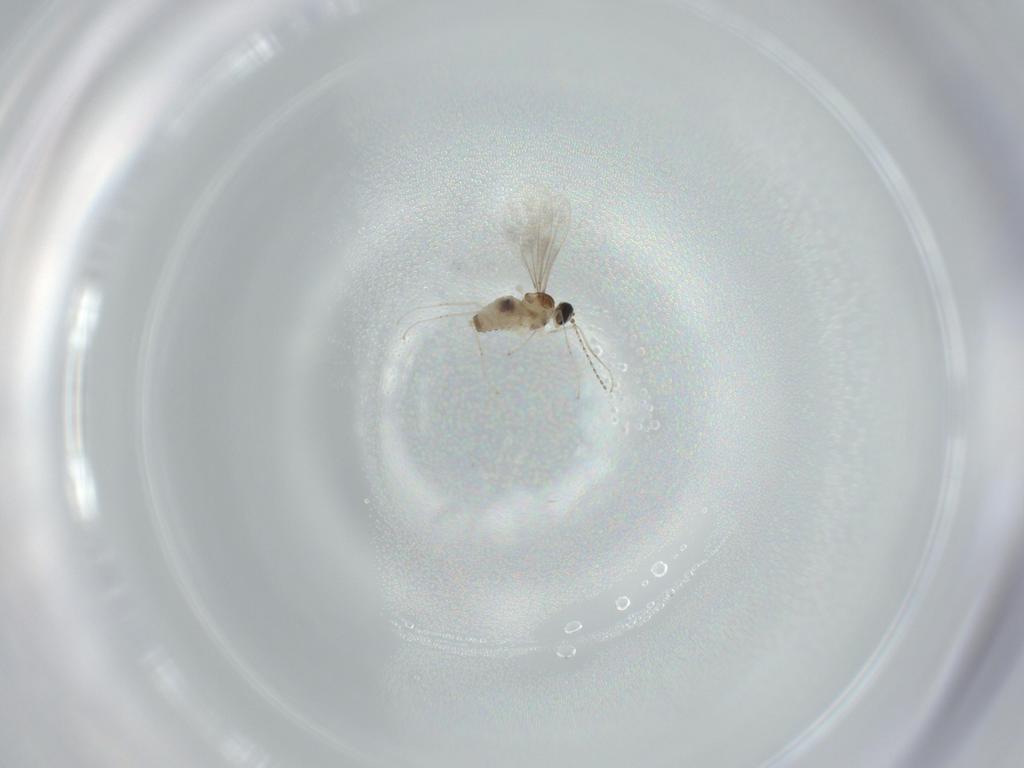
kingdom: Animalia
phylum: Arthropoda
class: Insecta
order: Diptera
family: Cecidomyiidae
